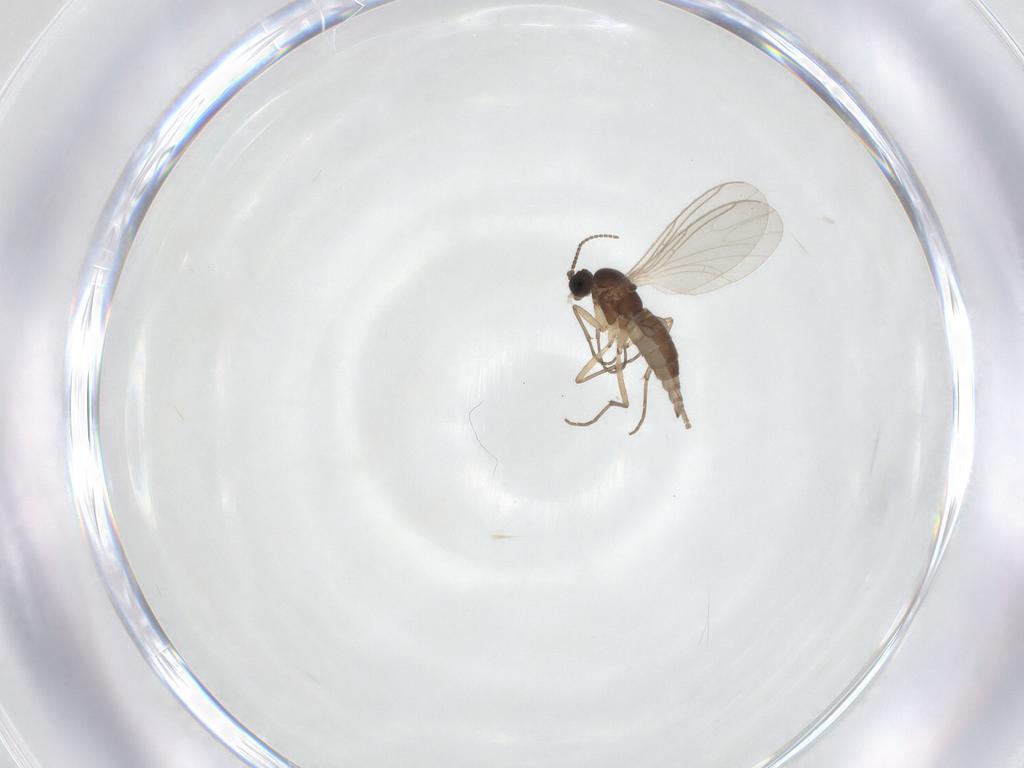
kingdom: Animalia
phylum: Arthropoda
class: Insecta
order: Diptera
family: Sciaridae
